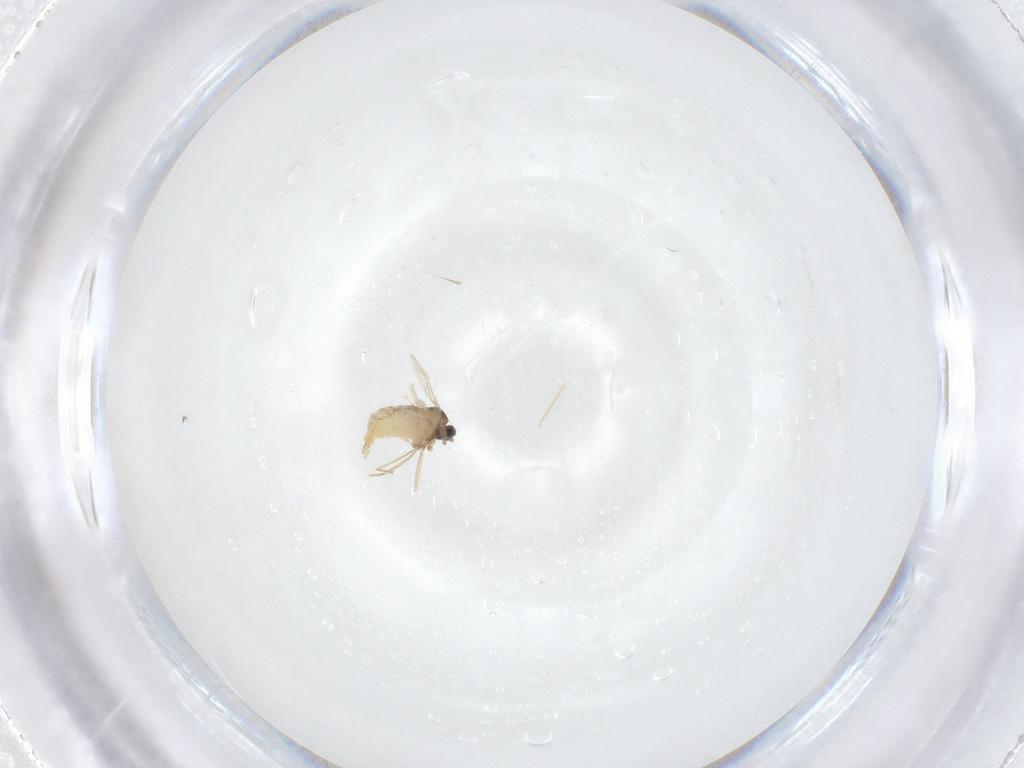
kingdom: Animalia
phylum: Arthropoda
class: Insecta
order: Diptera
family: Cecidomyiidae
